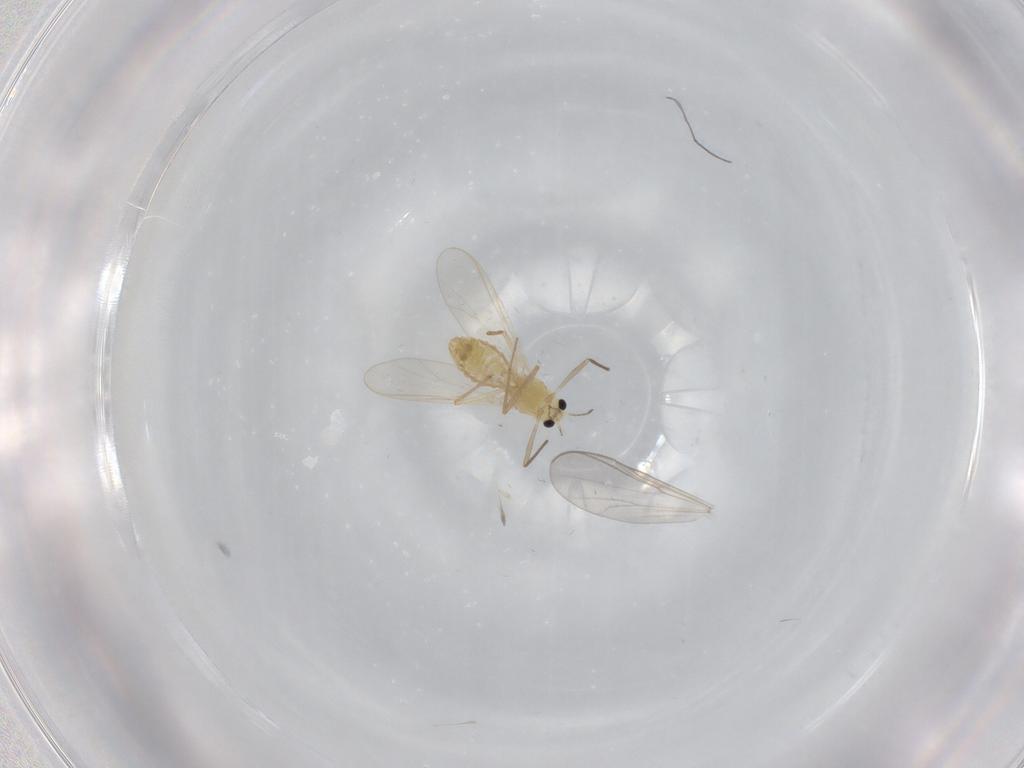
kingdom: Animalia
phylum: Arthropoda
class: Insecta
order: Diptera
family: Chironomidae
